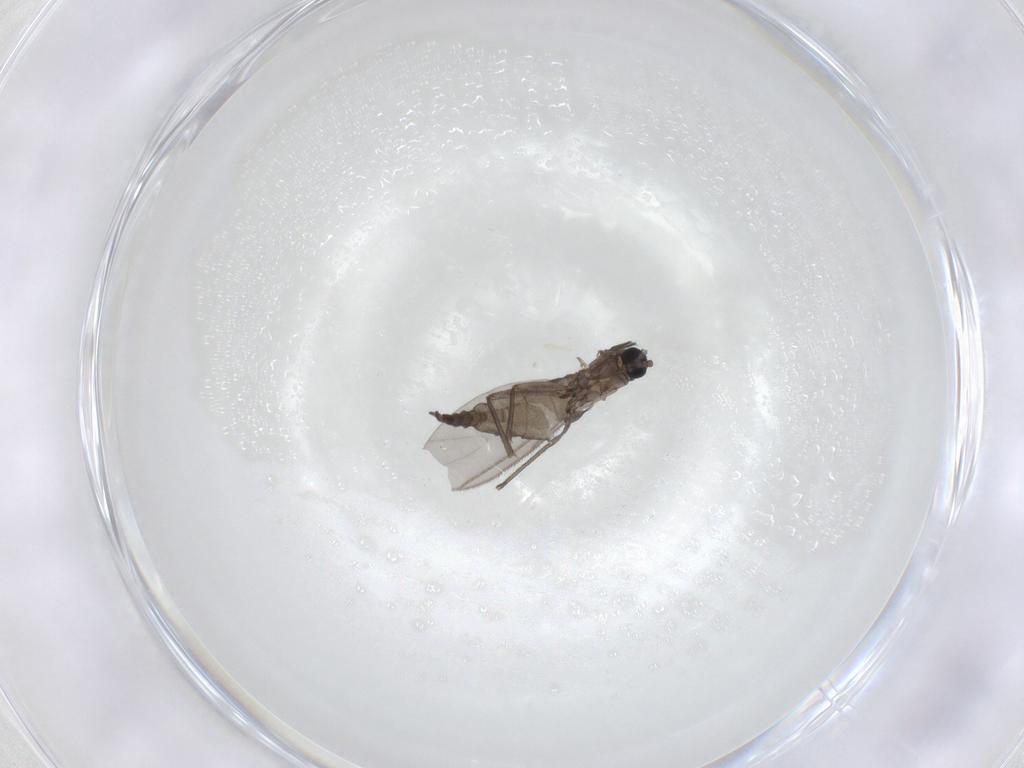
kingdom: Animalia
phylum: Arthropoda
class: Insecta
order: Diptera
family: Sciaridae
